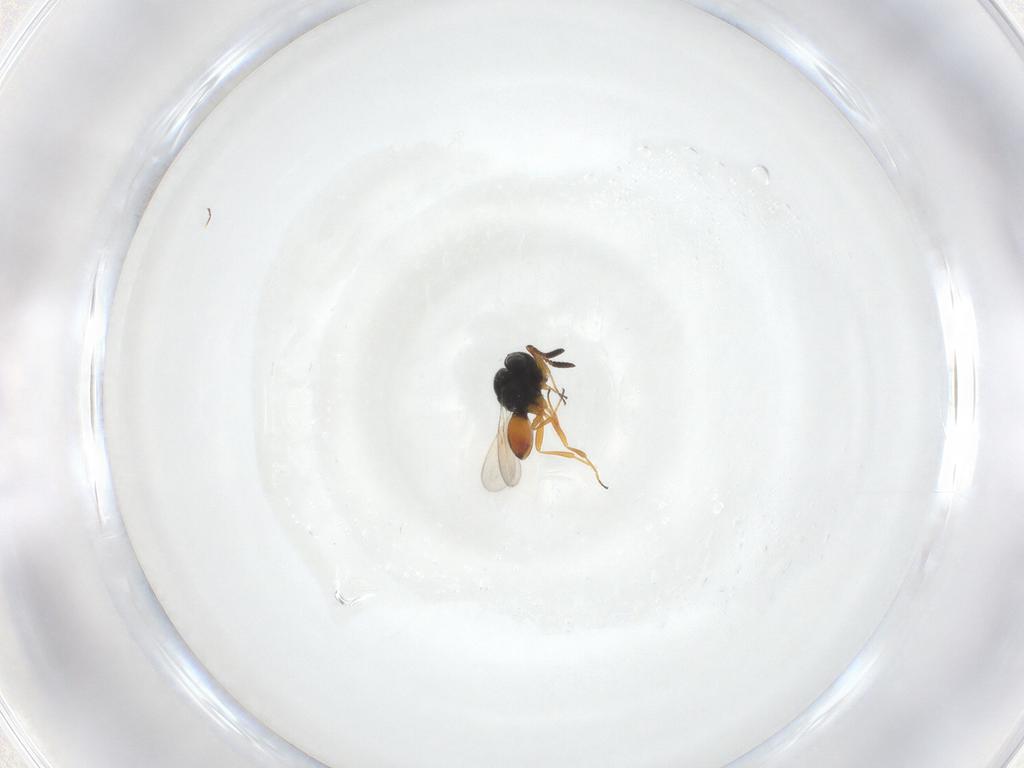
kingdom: Animalia
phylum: Arthropoda
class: Insecta
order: Hymenoptera
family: Scelionidae
